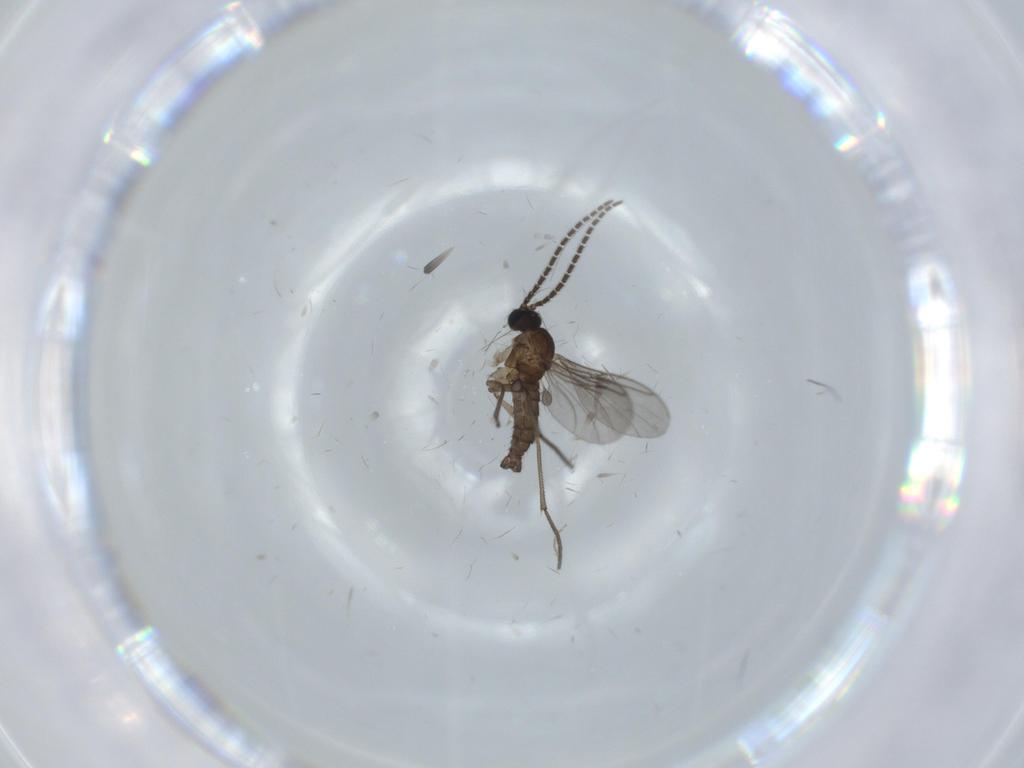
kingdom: Animalia
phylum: Arthropoda
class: Insecta
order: Diptera
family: Sciaridae
